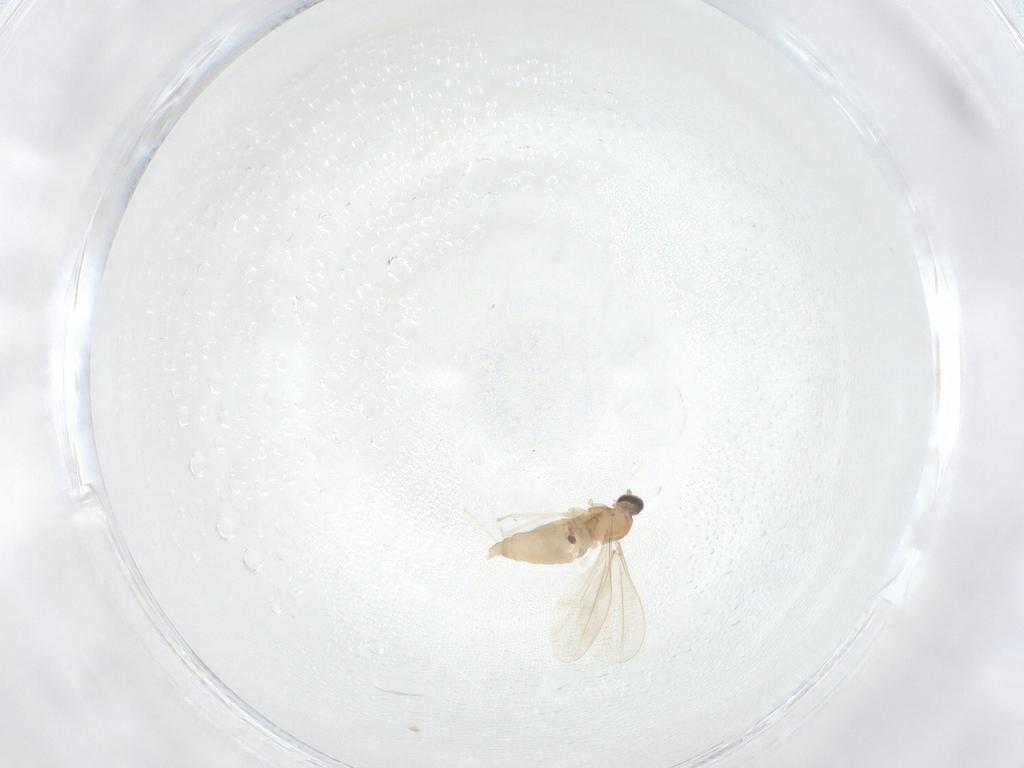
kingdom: Animalia
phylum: Arthropoda
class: Insecta
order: Diptera
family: Cecidomyiidae
